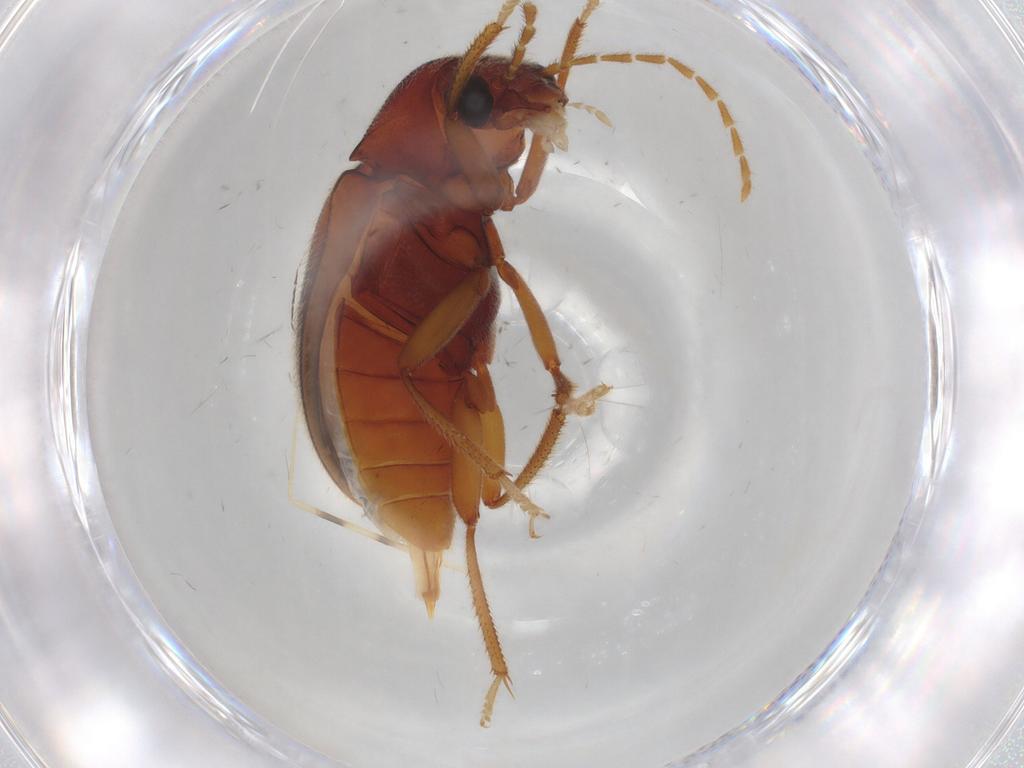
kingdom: Animalia
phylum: Arthropoda
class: Insecta
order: Coleoptera
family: Ptilodactylidae
